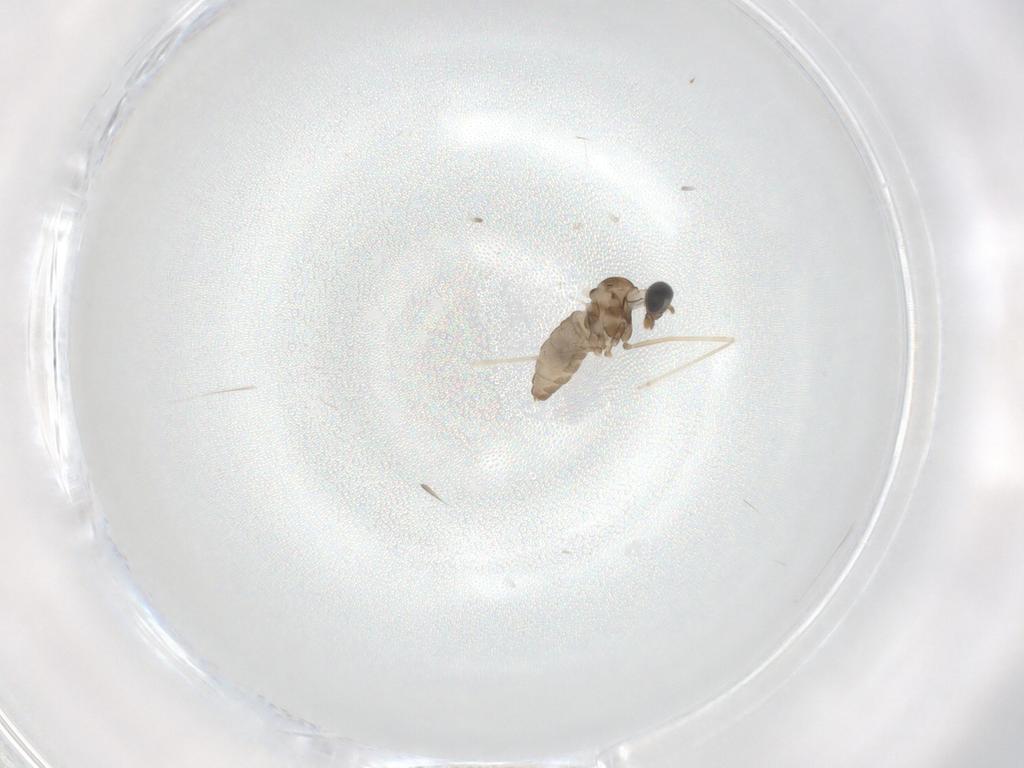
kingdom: Animalia
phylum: Arthropoda
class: Insecta
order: Diptera
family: Cecidomyiidae
